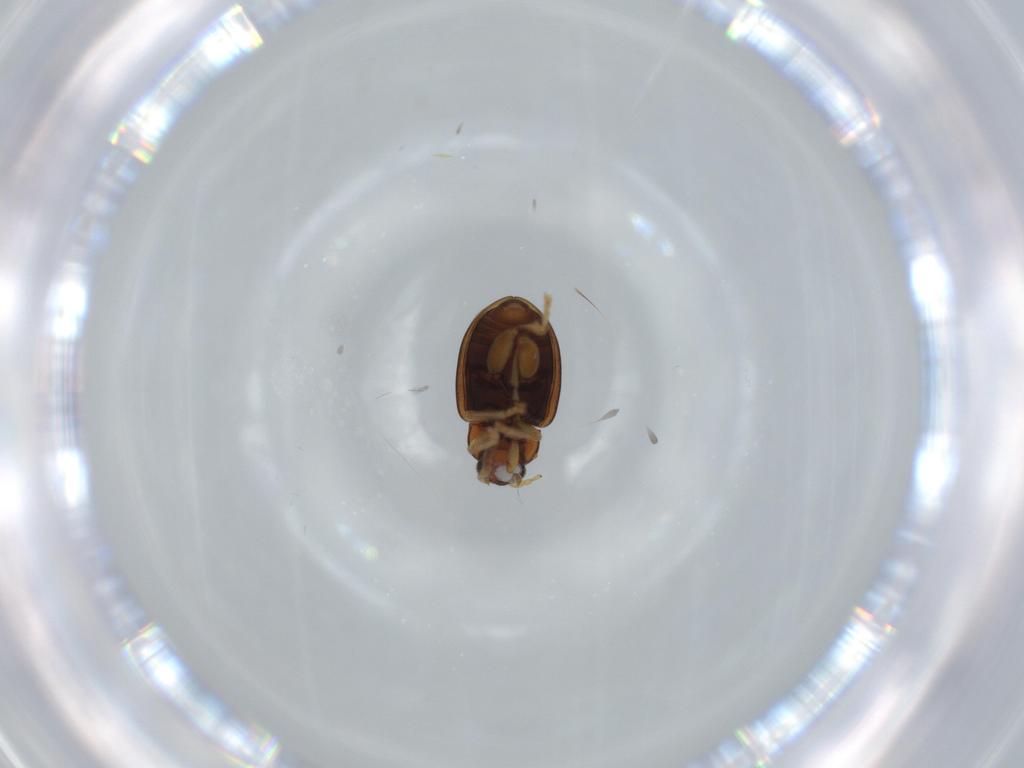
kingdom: Animalia
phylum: Arthropoda
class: Insecta
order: Coleoptera
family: Chrysomelidae
